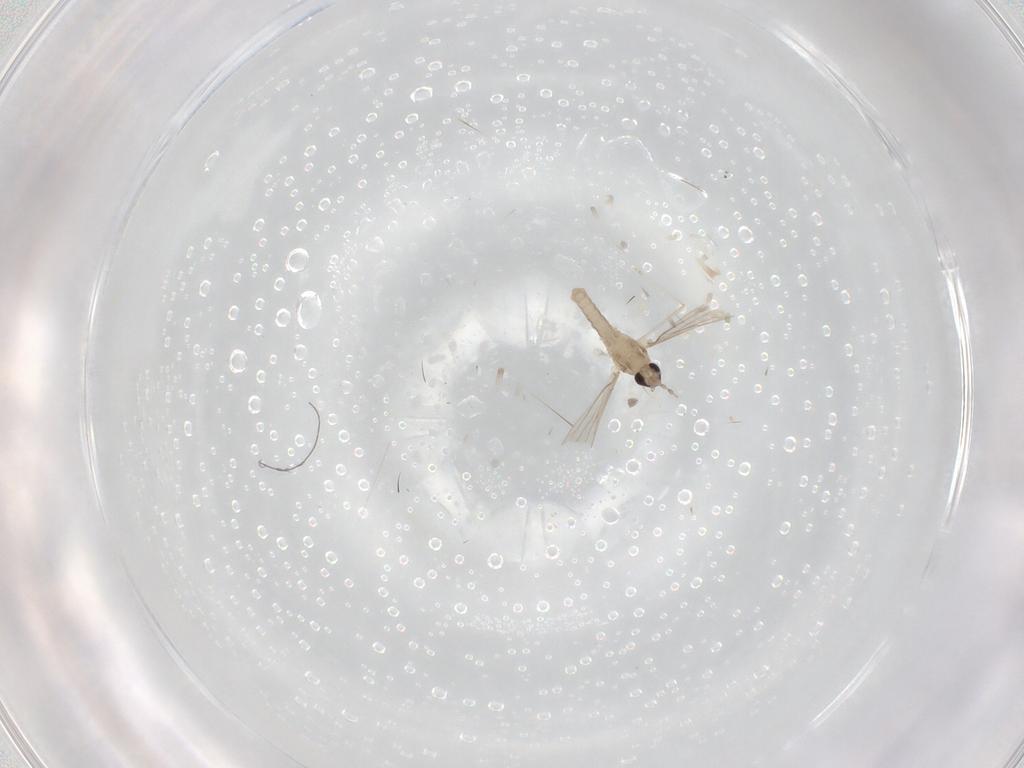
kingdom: Animalia
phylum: Arthropoda
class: Insecta
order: Diptera
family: Cecidomyiidae
